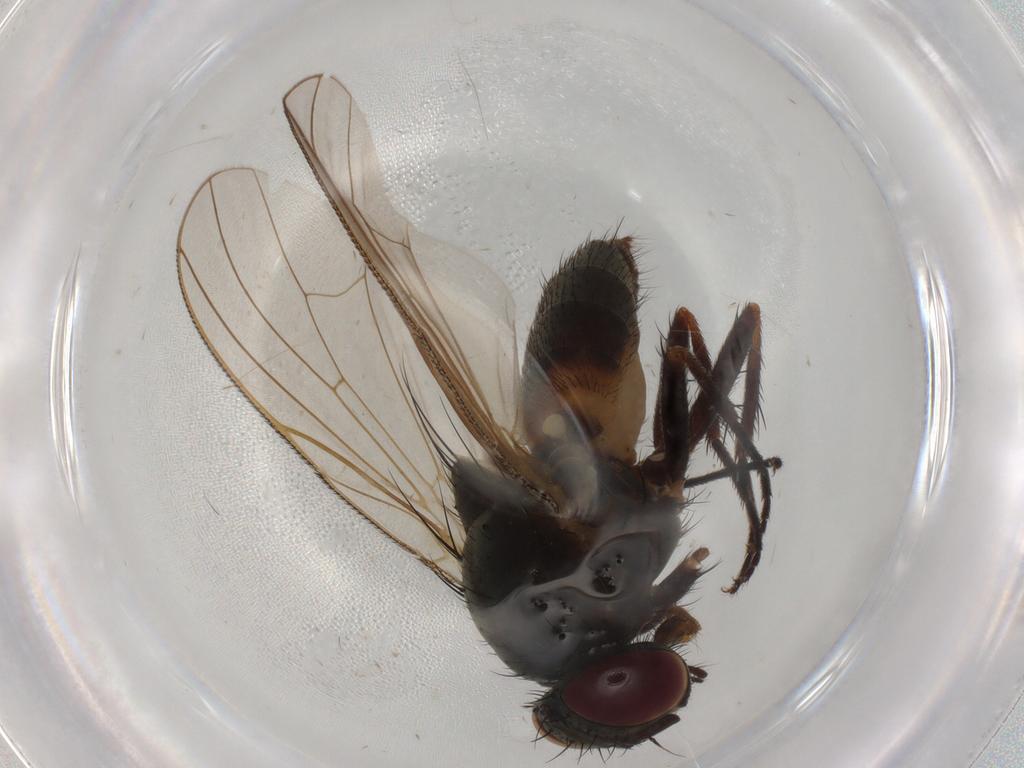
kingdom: Animalia
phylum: Arthropoda
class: Insecta
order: Diptera
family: Fannia
